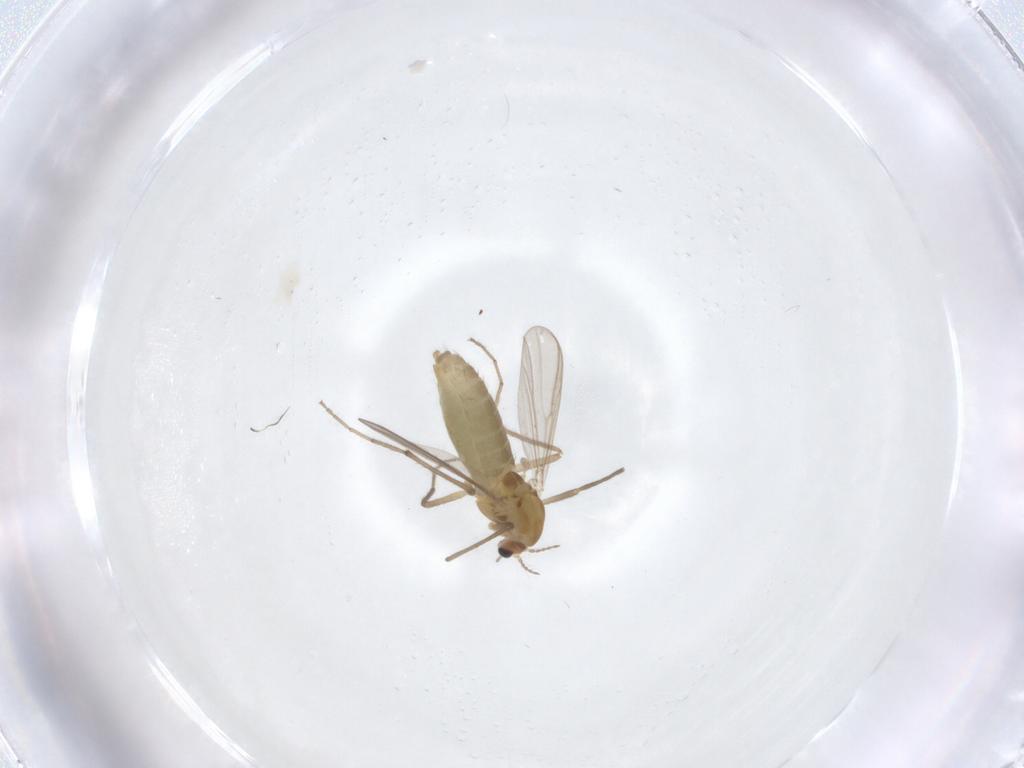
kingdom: Animalia
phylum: Arthropoda
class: Insecta
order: Diptera
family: Chironomidae
